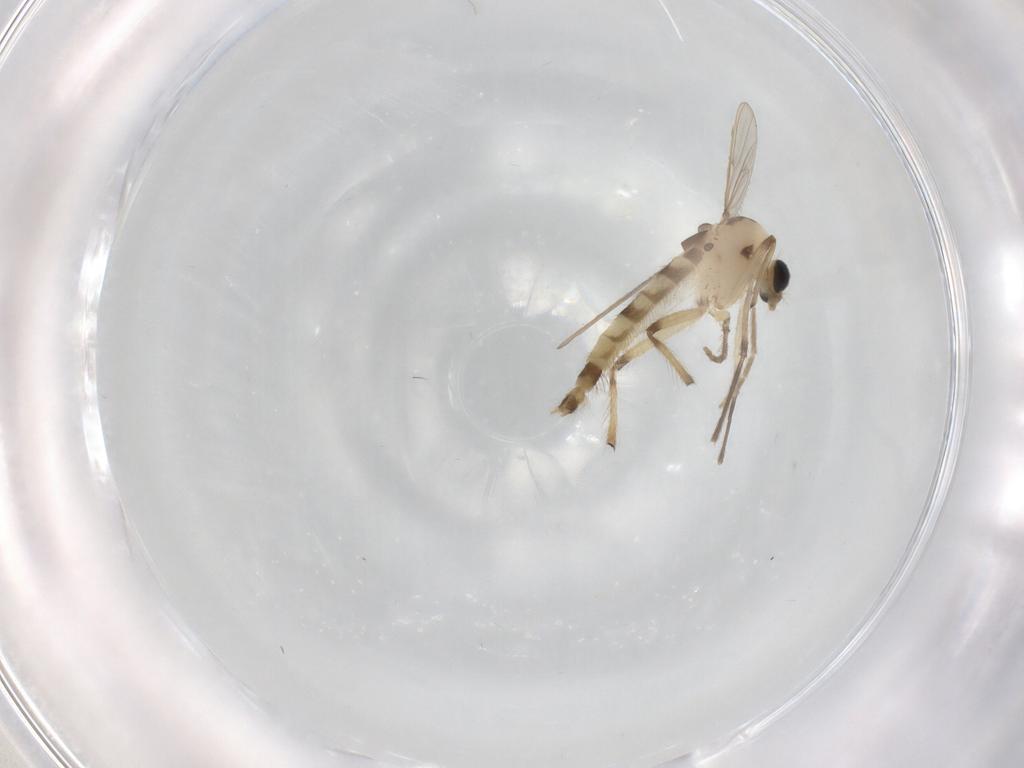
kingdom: Animalia
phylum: Arthropoda
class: Insecta
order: Diptera
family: Chironomidae
